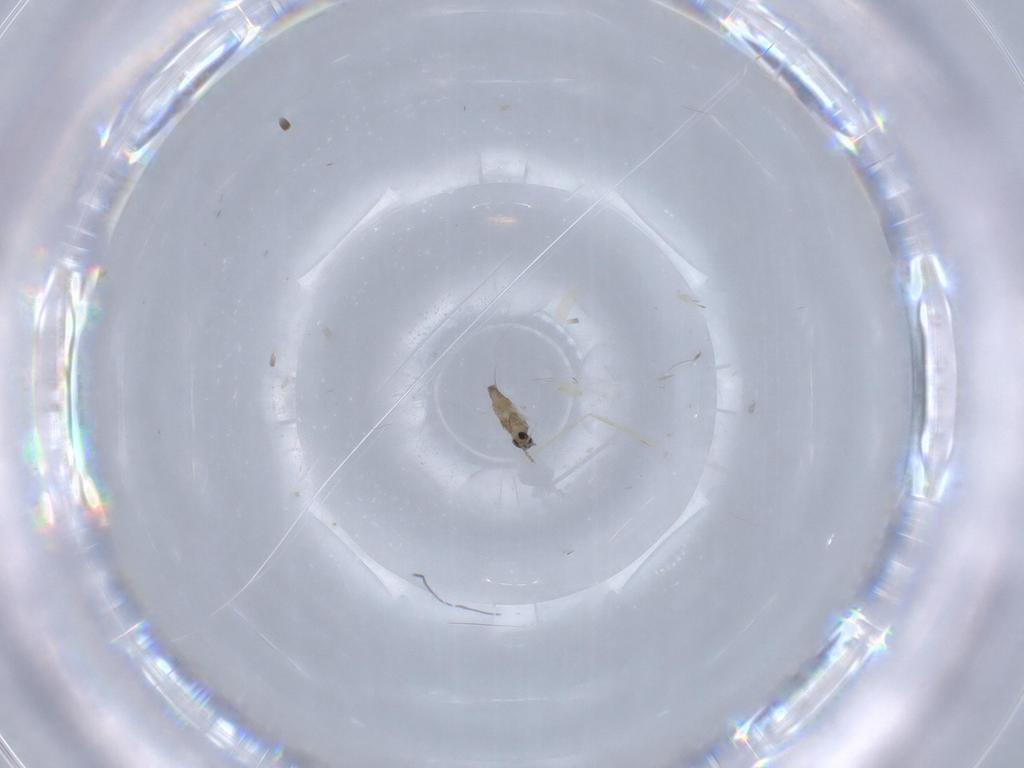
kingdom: Animalia
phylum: Arthropoda
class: Insecta
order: Diptera
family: Cecidomyiidae
